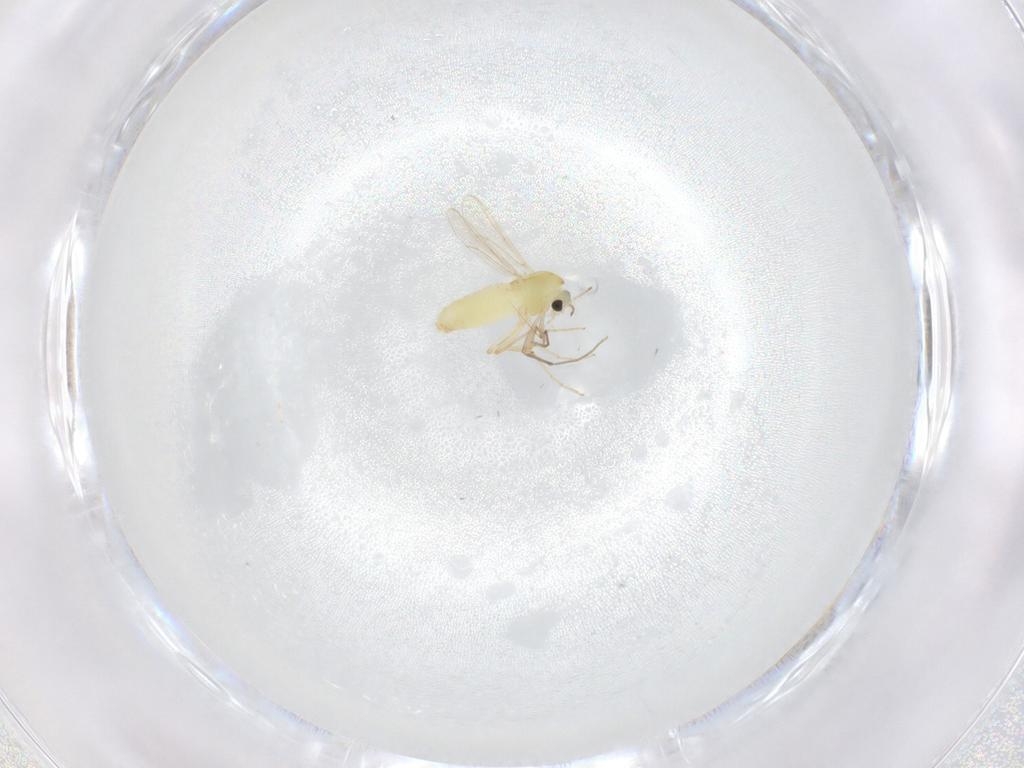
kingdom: Animalia
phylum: Arthropoda
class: Insecta
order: Diptera
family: Chironomidae
